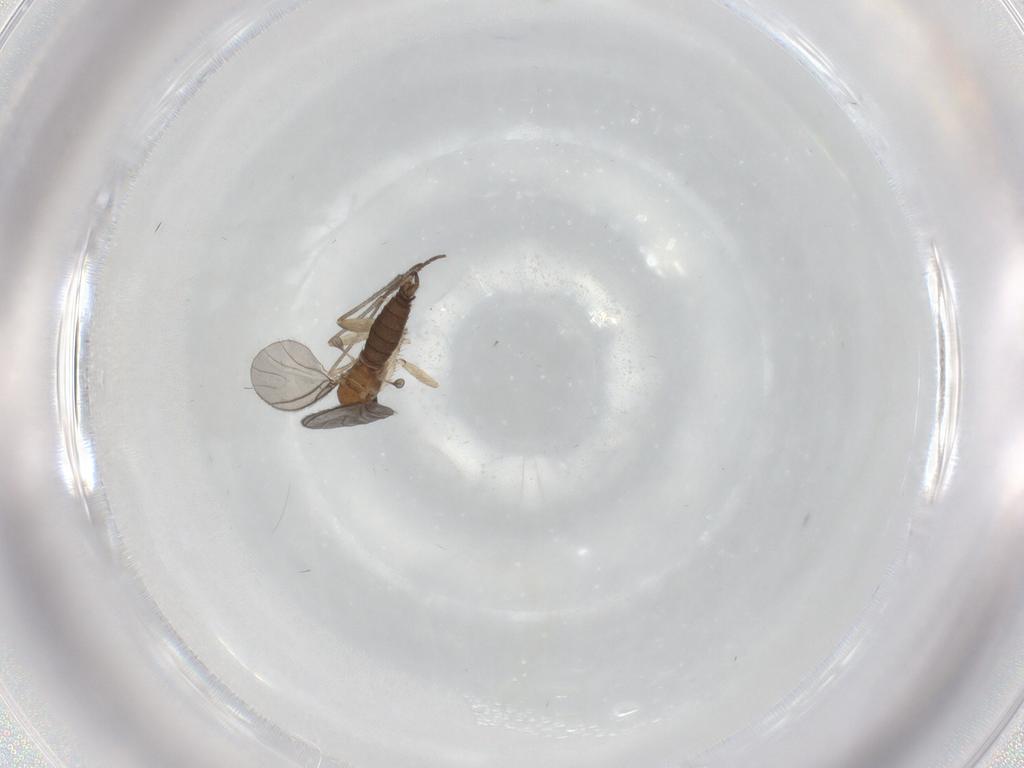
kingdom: Animalia
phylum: Arthropoda
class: Insecta
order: Diptera
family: Sciaridae
